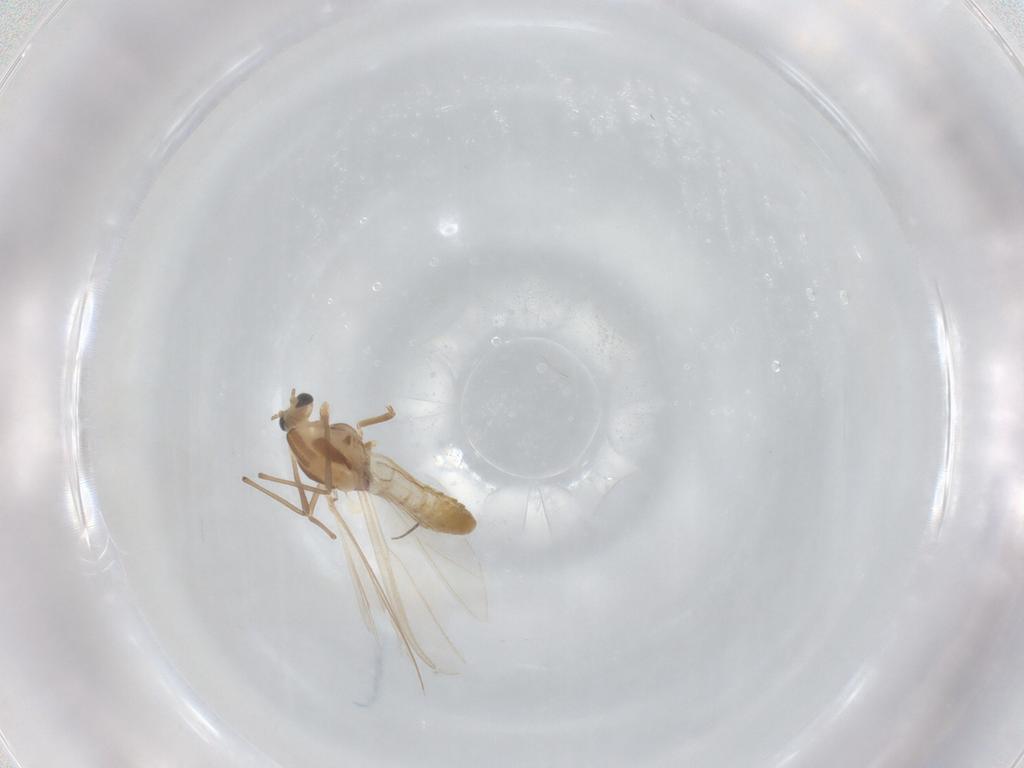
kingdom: Animalia
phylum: Arthropoda
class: Insecta
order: Diptera
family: Chironomidae
